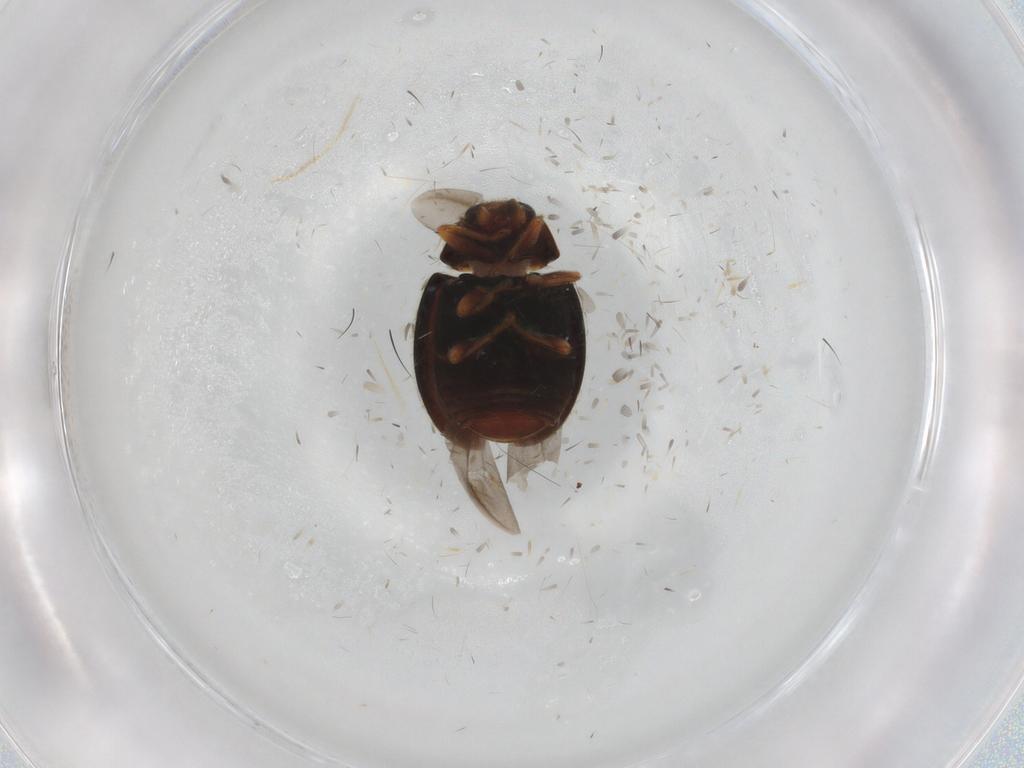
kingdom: Animalia
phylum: Arthropoda
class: Insecta
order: Coleoptera
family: Coccinellidae
